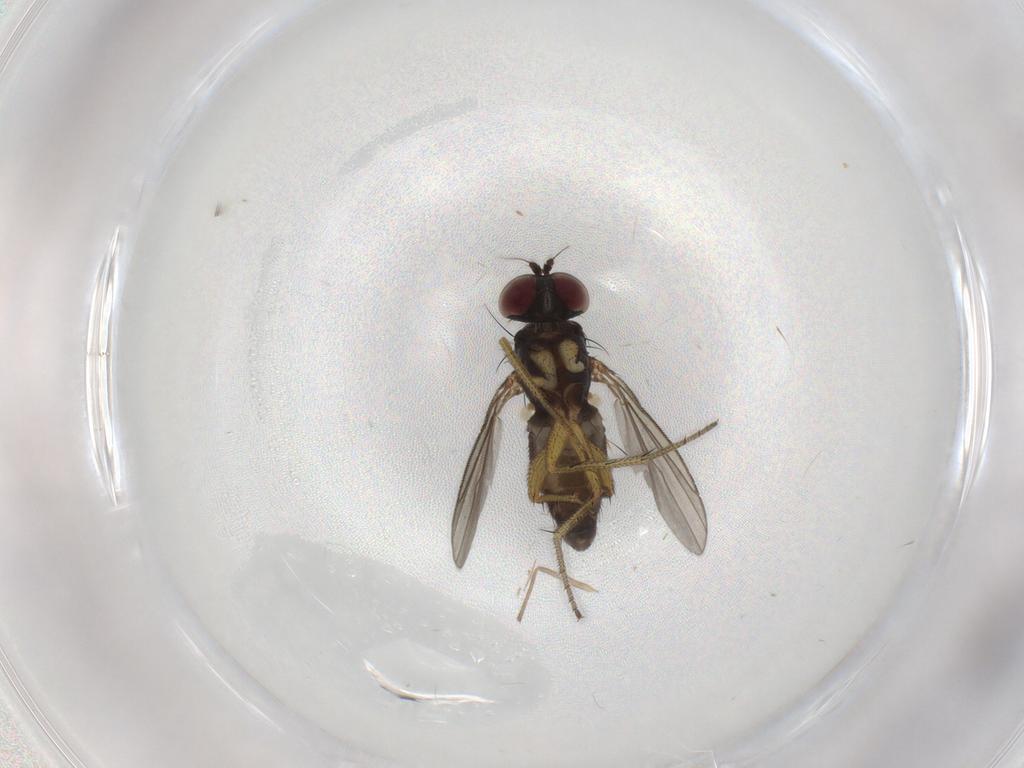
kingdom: Animalia
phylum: Arthropoda
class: Insecta
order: Diptera
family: Chironomidae
